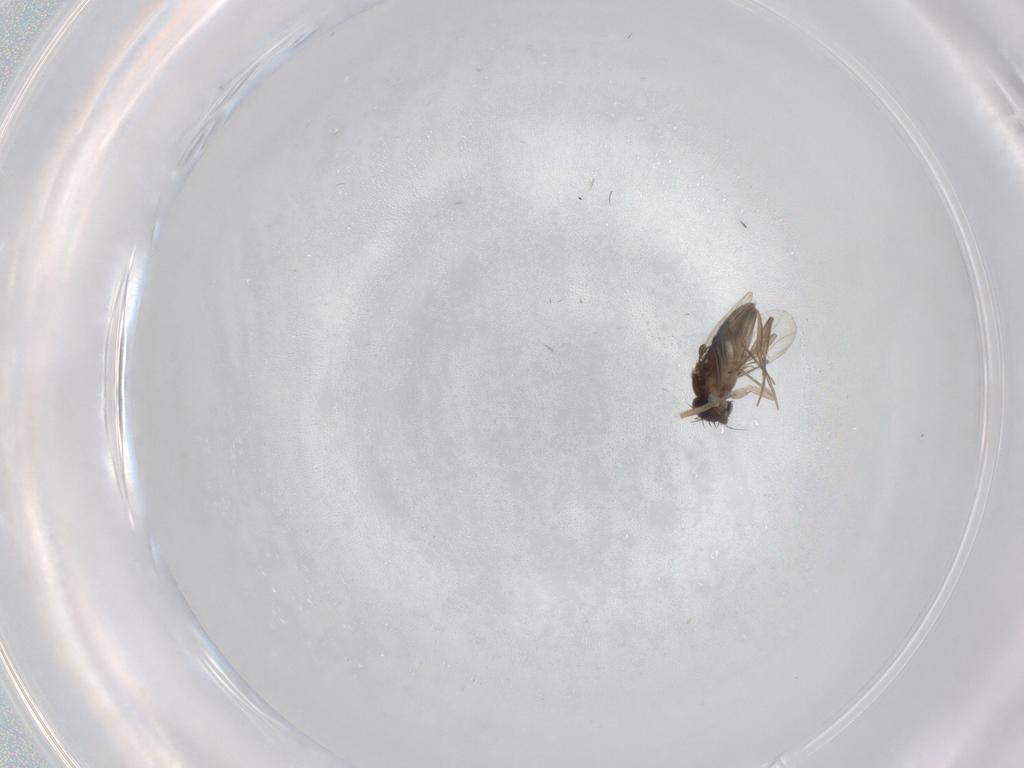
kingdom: Animalia
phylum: Arthropoda
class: Insecta
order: Diptera
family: Phoridae
